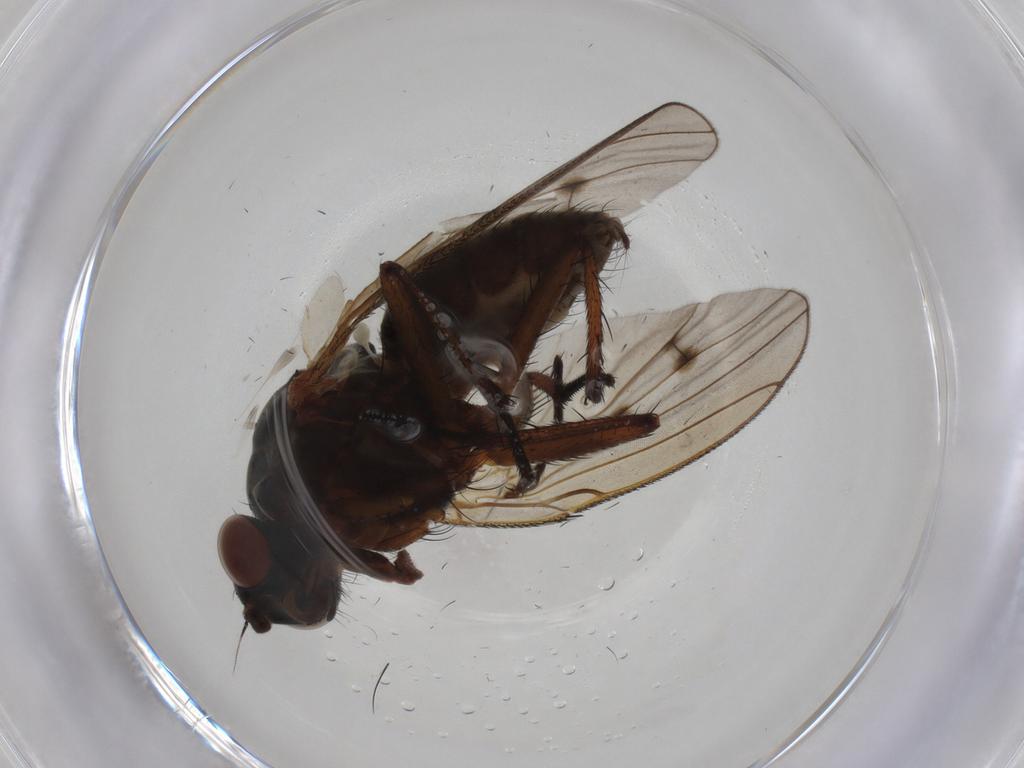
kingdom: Animalia
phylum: Arthropoda
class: Insecta
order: Diptera
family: Anthomyiidae
